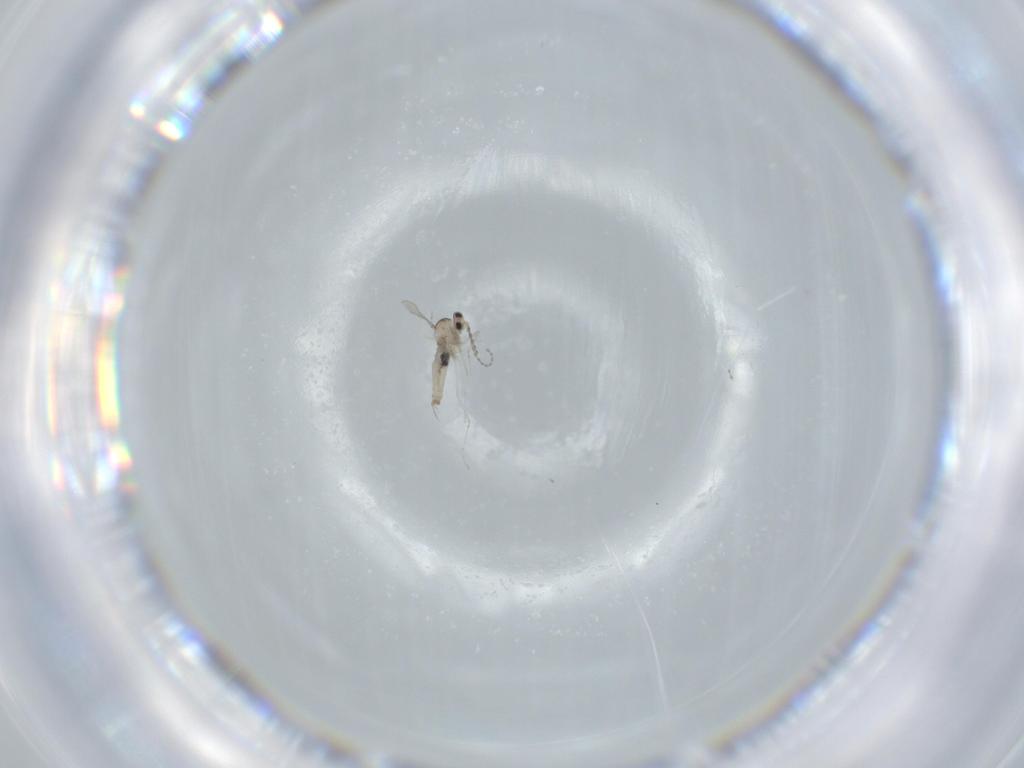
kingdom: Animalia
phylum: Arthropoda
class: Insecta
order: Diptera
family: Cecidomyiidae
